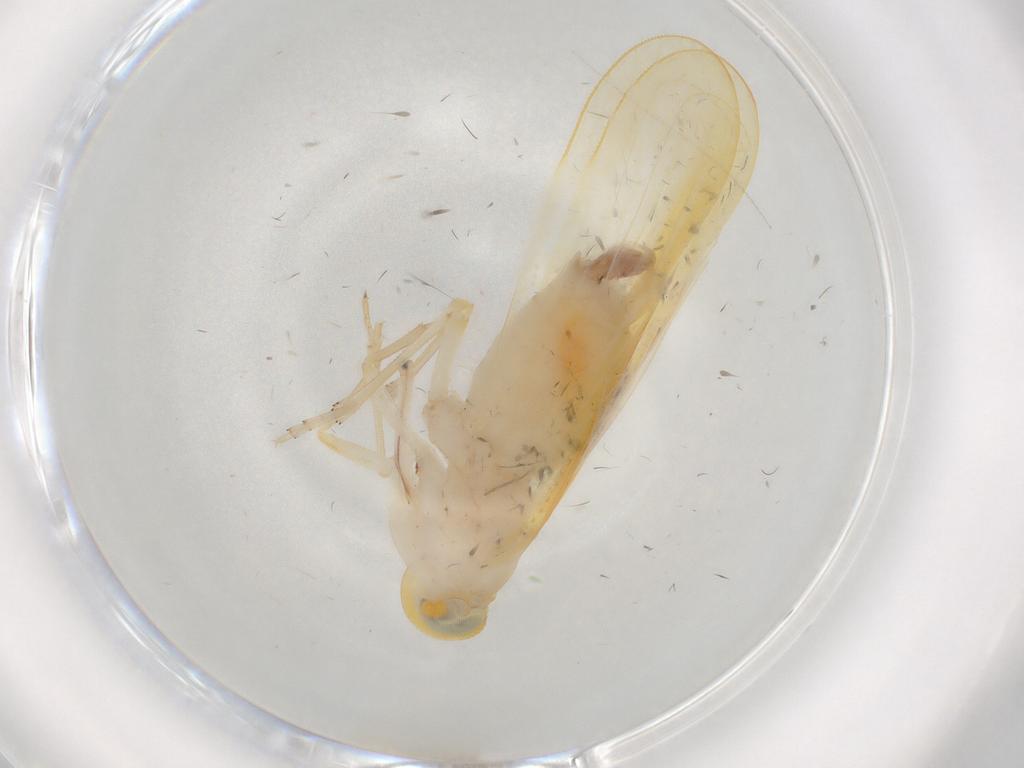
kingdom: Animalia
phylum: Arthropoda
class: Insecta
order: Hemiptera
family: Derbidae
